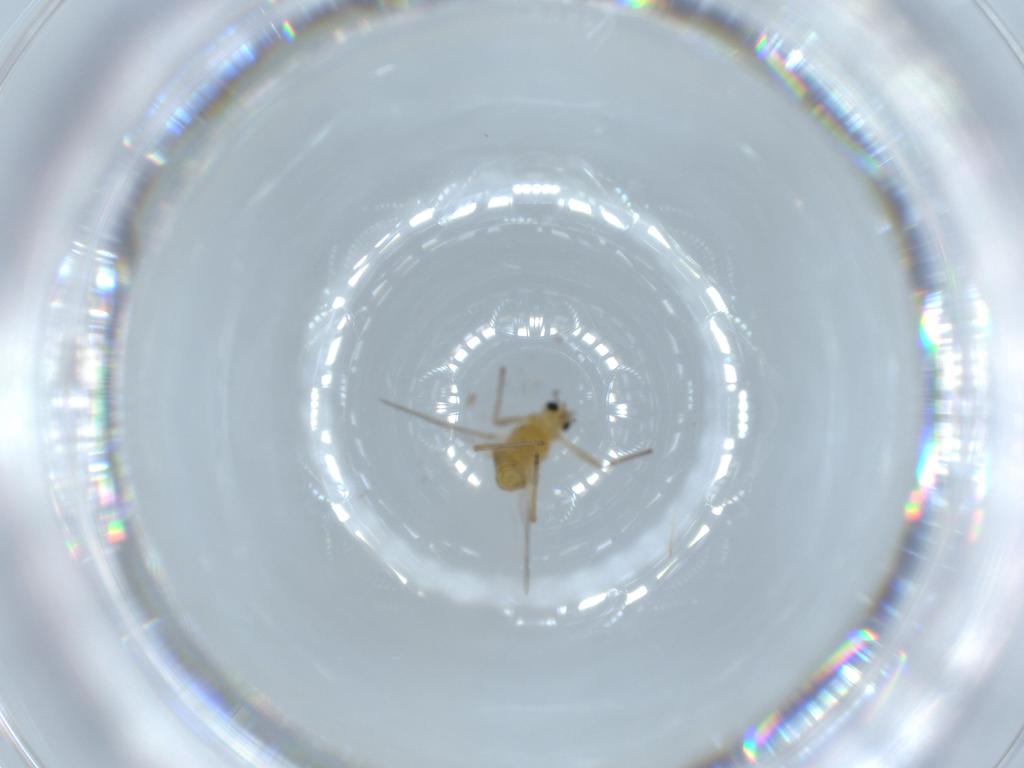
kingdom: Animalia
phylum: Arthropoda
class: Insecta
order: Diptera
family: Chironomidae
